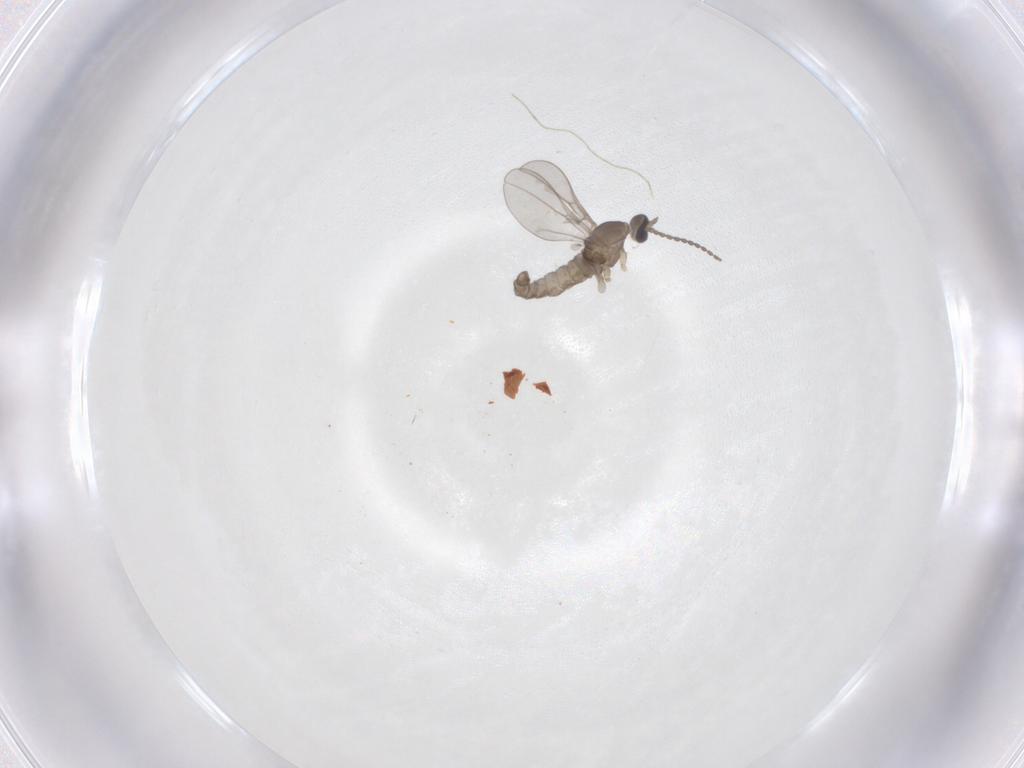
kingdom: Animalia
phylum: Arthropoda
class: Insecta
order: Diptera
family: Cecidomyiidae
